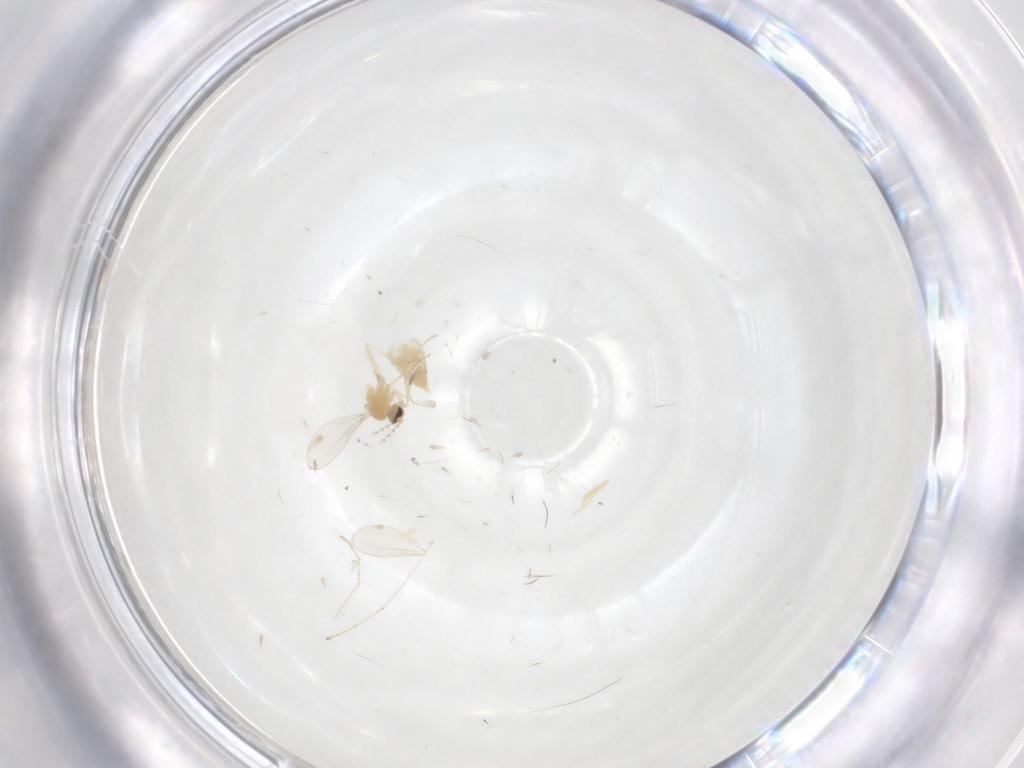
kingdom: Animalia
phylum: Arthropoda
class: Insecta
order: Diptera
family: Cecidomyiidae
